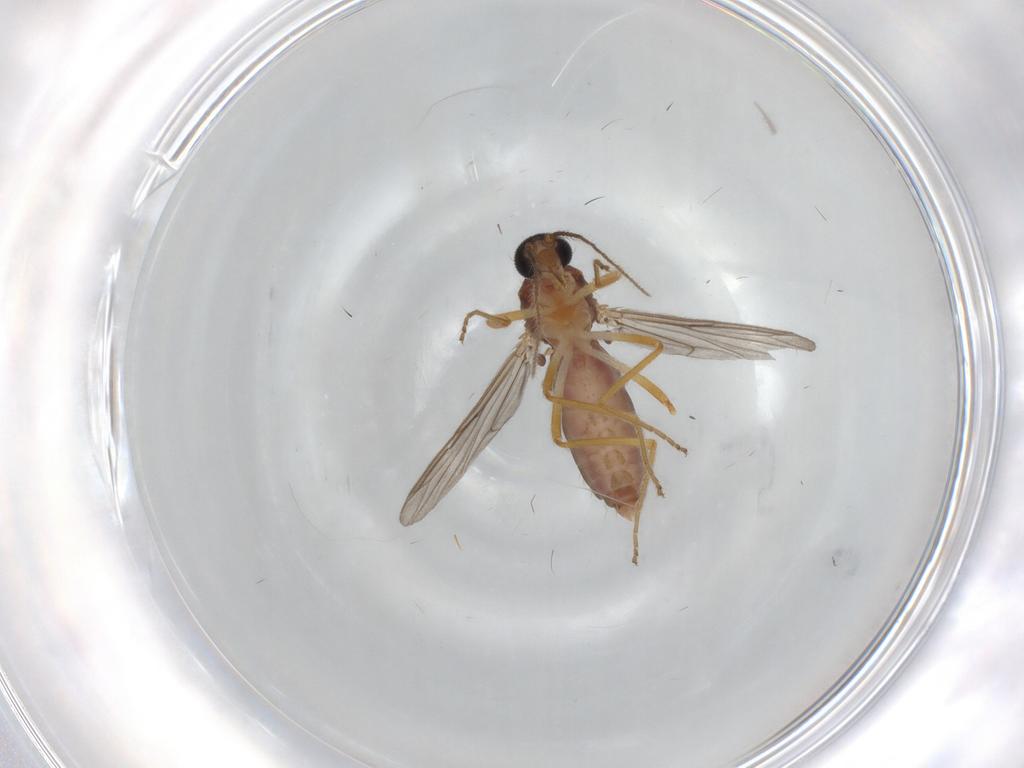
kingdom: Animalia
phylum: Arthropoda
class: Insecta
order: Diptera
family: Ceratopogonidae
